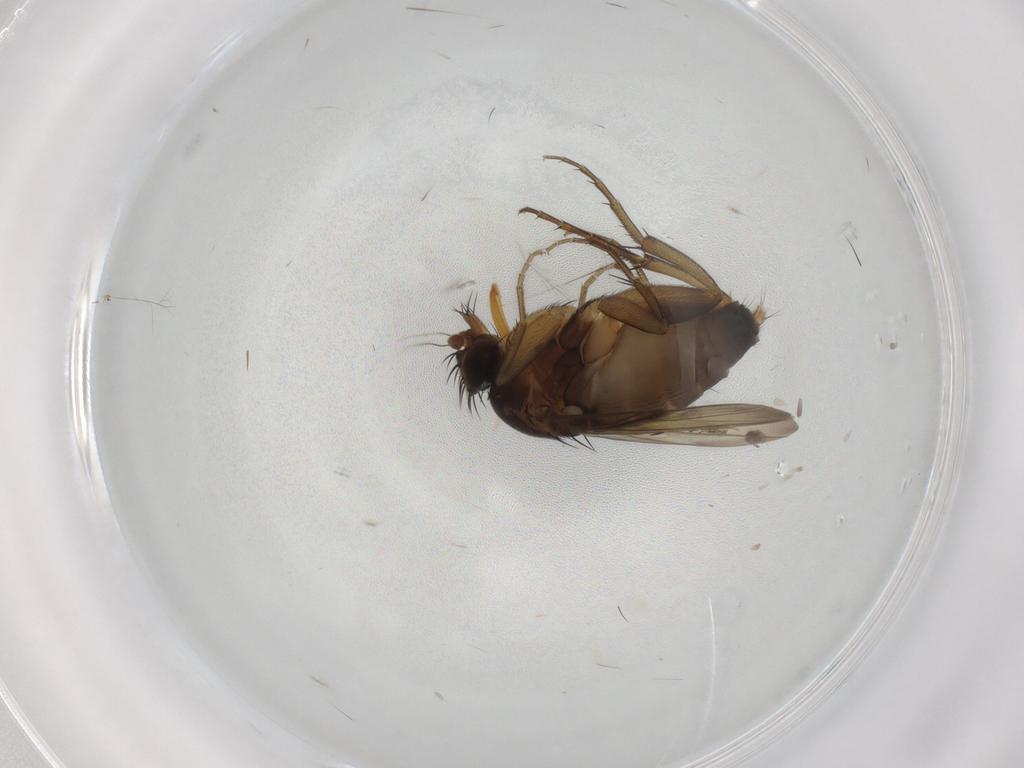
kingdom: Animalia
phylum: Arthropoda
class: Insecta
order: Diptera
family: Phoridae
